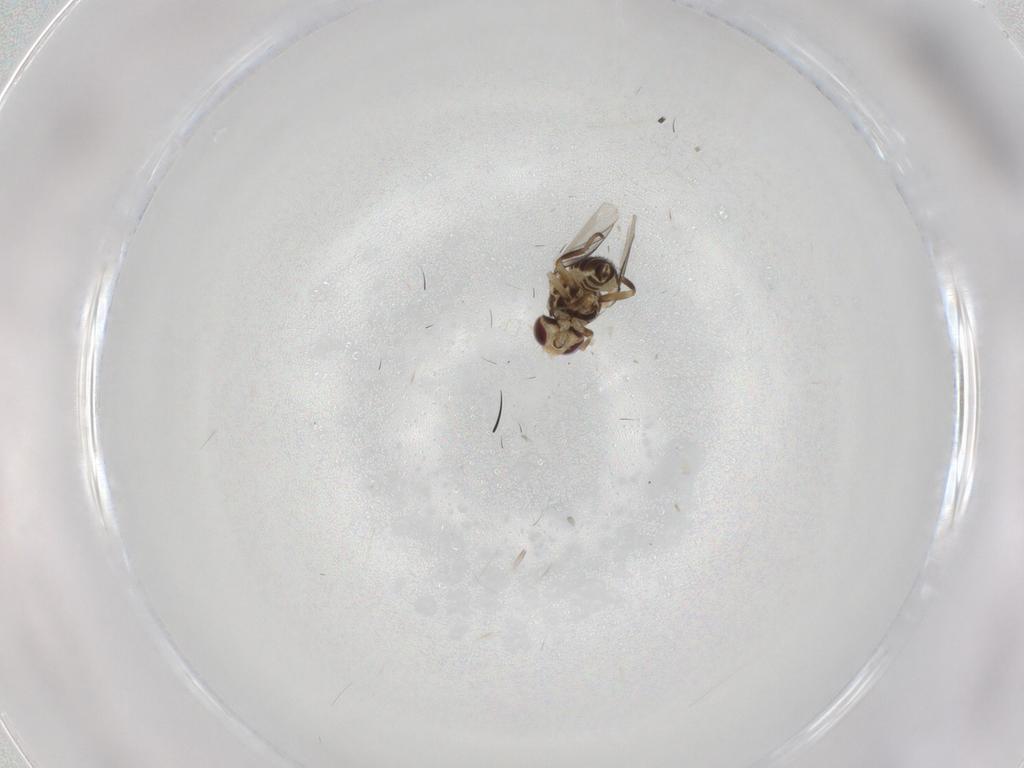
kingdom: Animalia
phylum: Arthropoda
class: Insecta
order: Diptera
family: Agromyzidae
